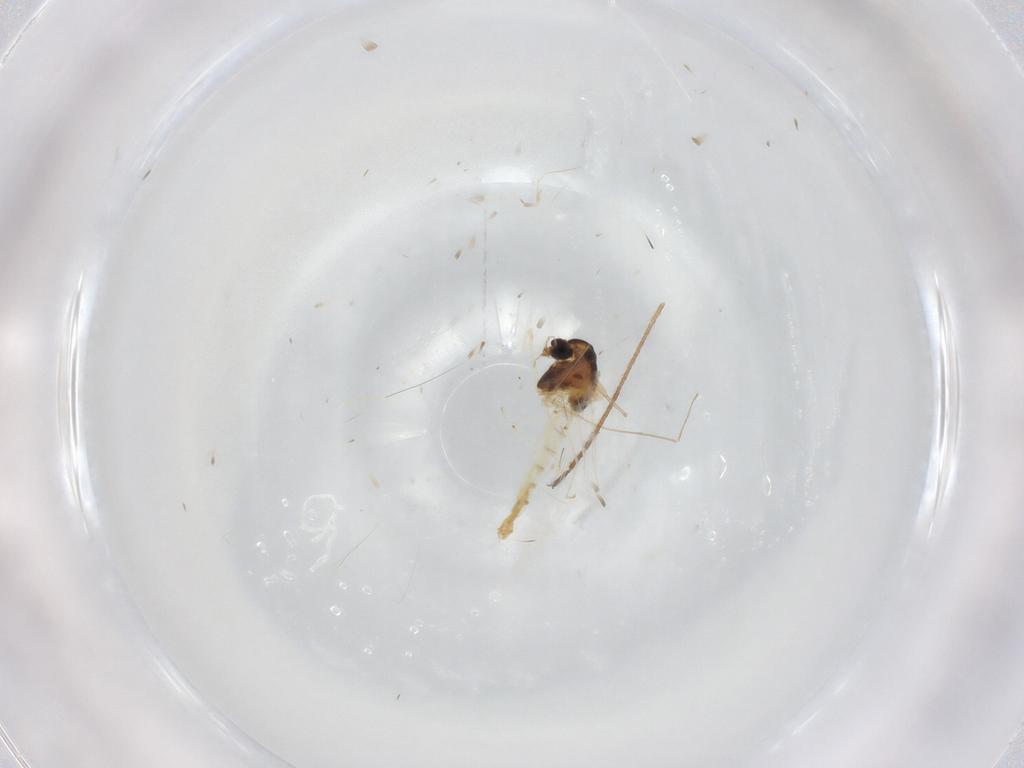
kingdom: Animalia
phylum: Arthropoda
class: Insecta
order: Diptera
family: Chironomidae
